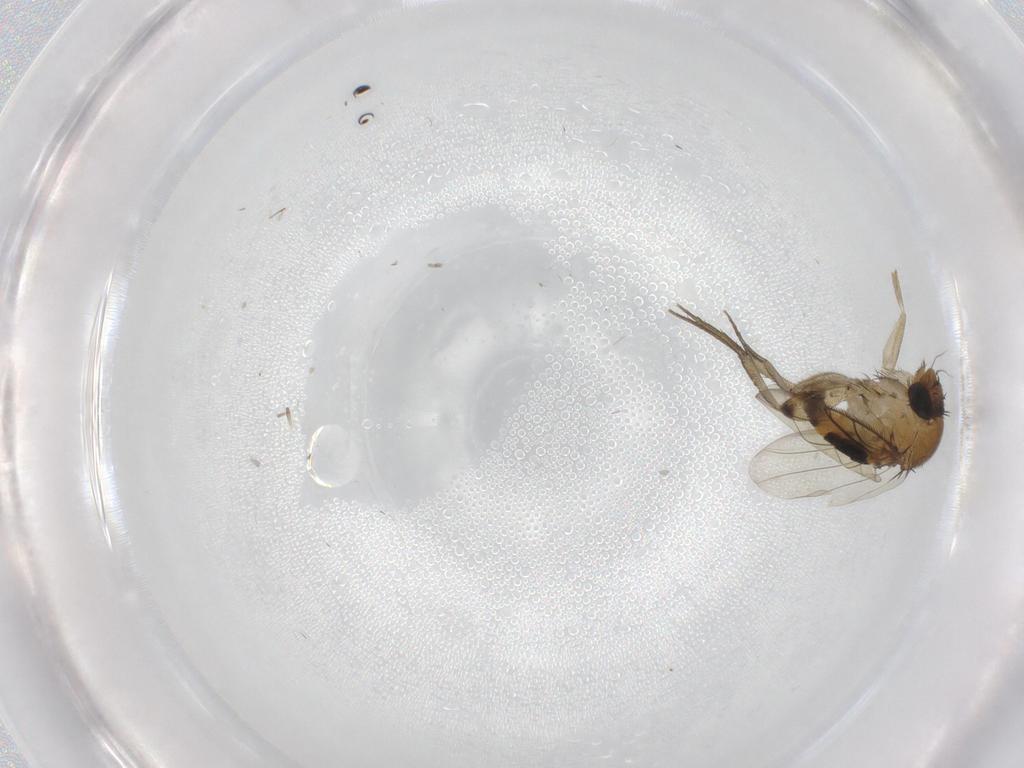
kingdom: Animalia
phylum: Arthropoda
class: Insecta
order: Diptera
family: Phoridae
